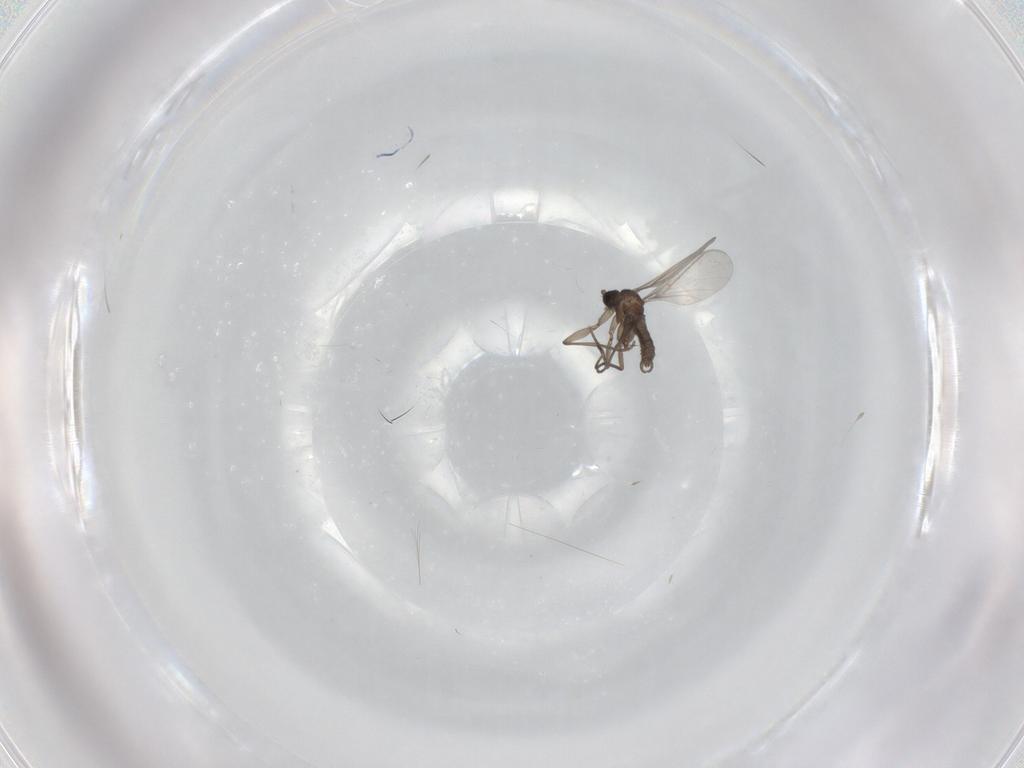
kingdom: Animalia
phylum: Arthropoda
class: Insecta
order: Diptera
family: Sciaridae
